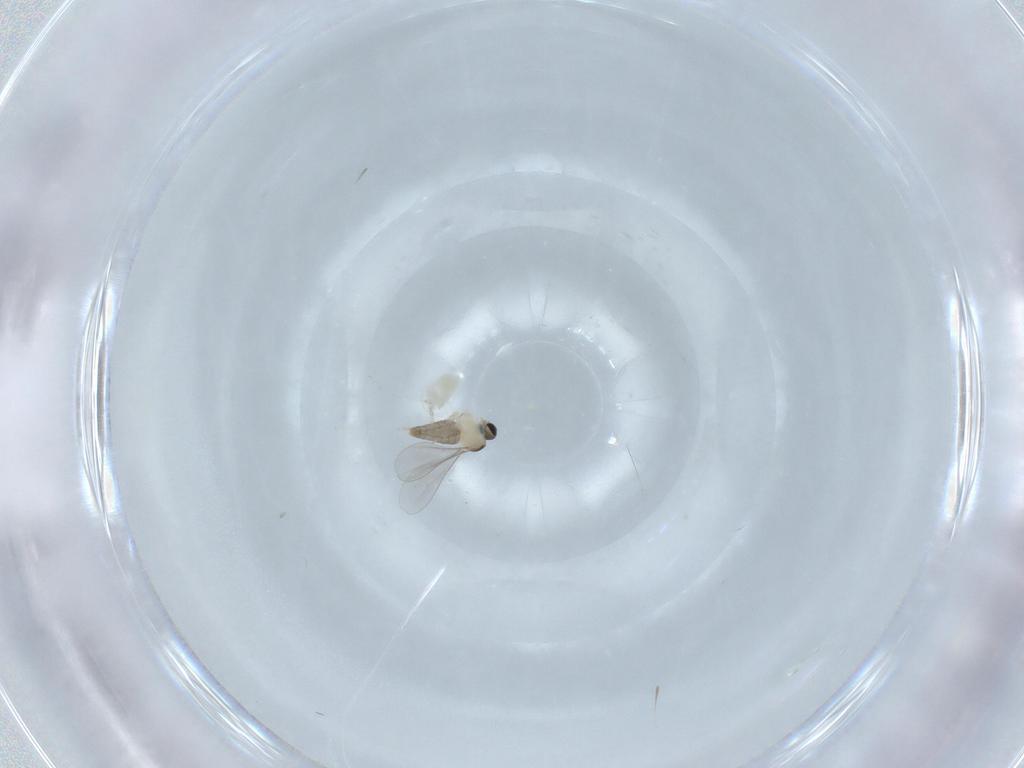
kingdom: Animalia
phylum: Arthropoda
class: Insecta
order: Diptera
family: Cecidomyiidae
